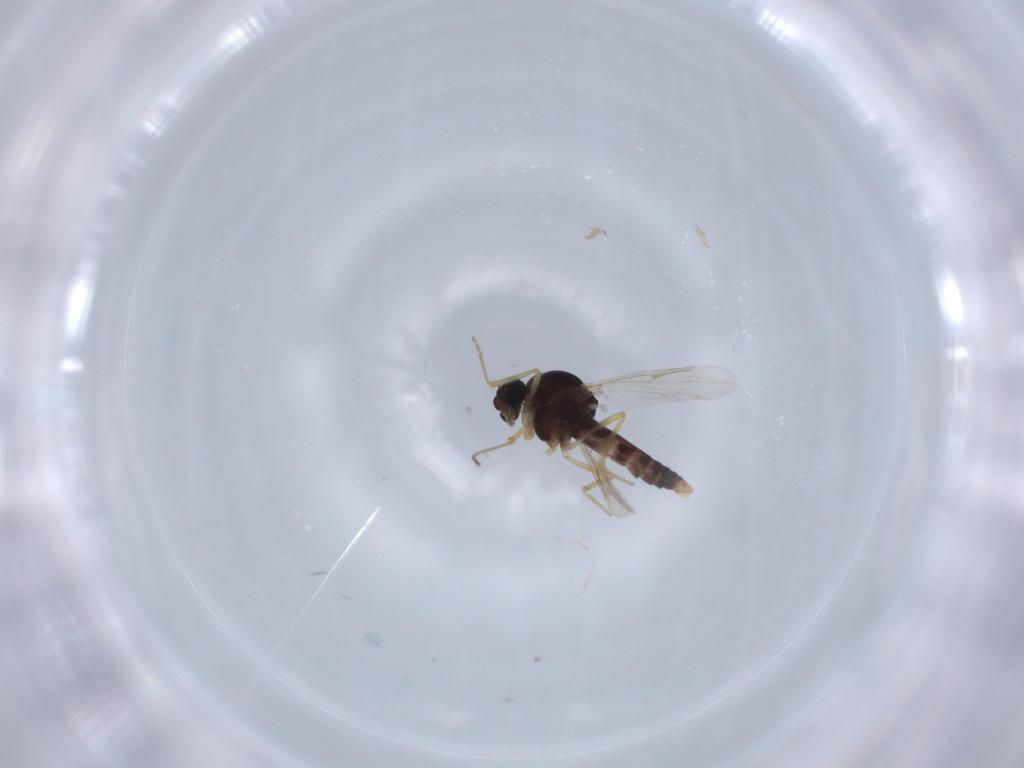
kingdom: Animalia
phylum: Arthropoda
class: Insecta
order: Diptera
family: Ceratopogonidae
